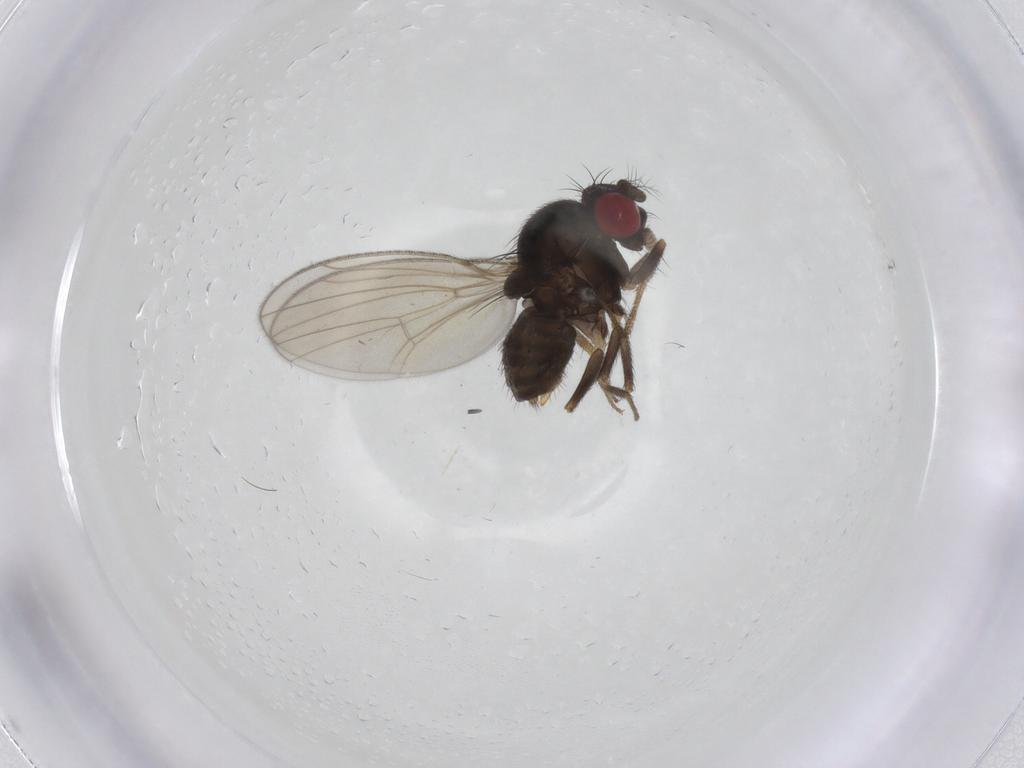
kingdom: Animalia
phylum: Arthropoda
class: Insecta
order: Diptera
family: Drosophilidae
